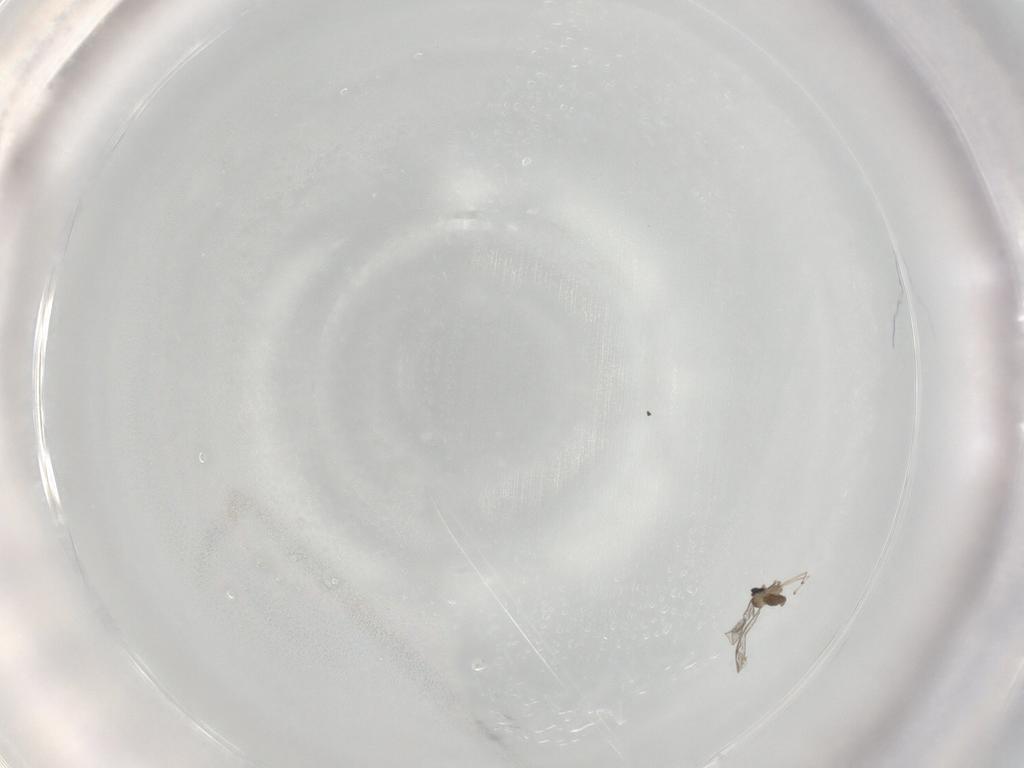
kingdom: Animalia
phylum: Arthropoda
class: Insecta
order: Diptera
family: Cecidomyiidae
